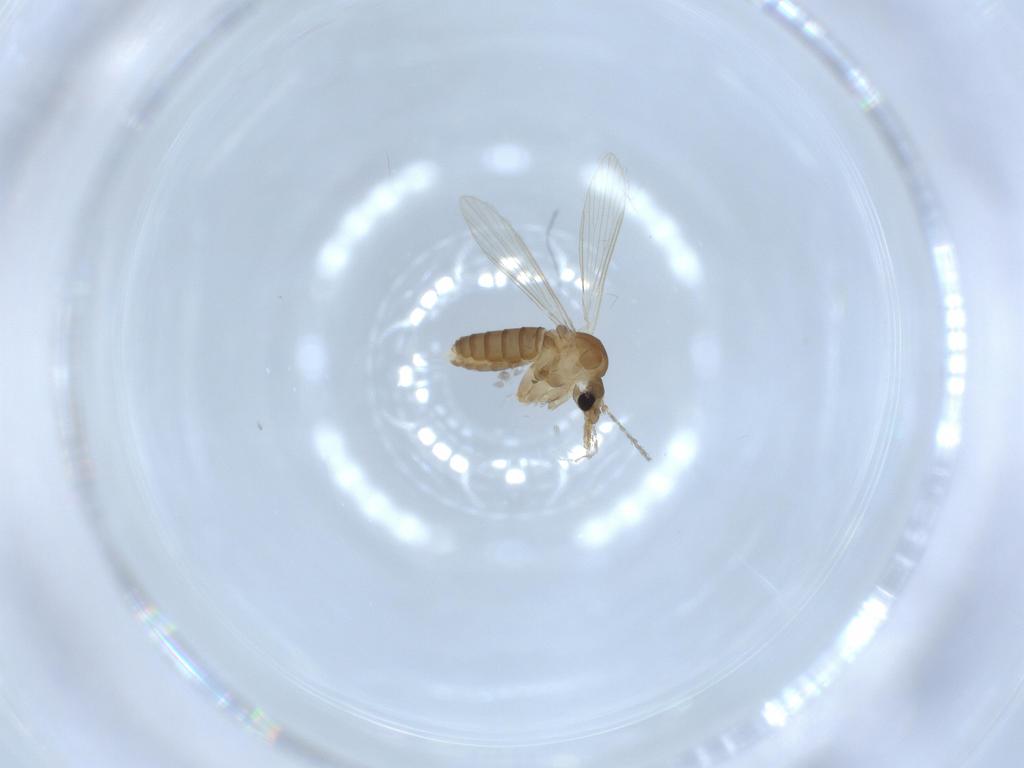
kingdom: Animalia
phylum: Arthropoda
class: Insecta
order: Diptera
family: Psychodidae
